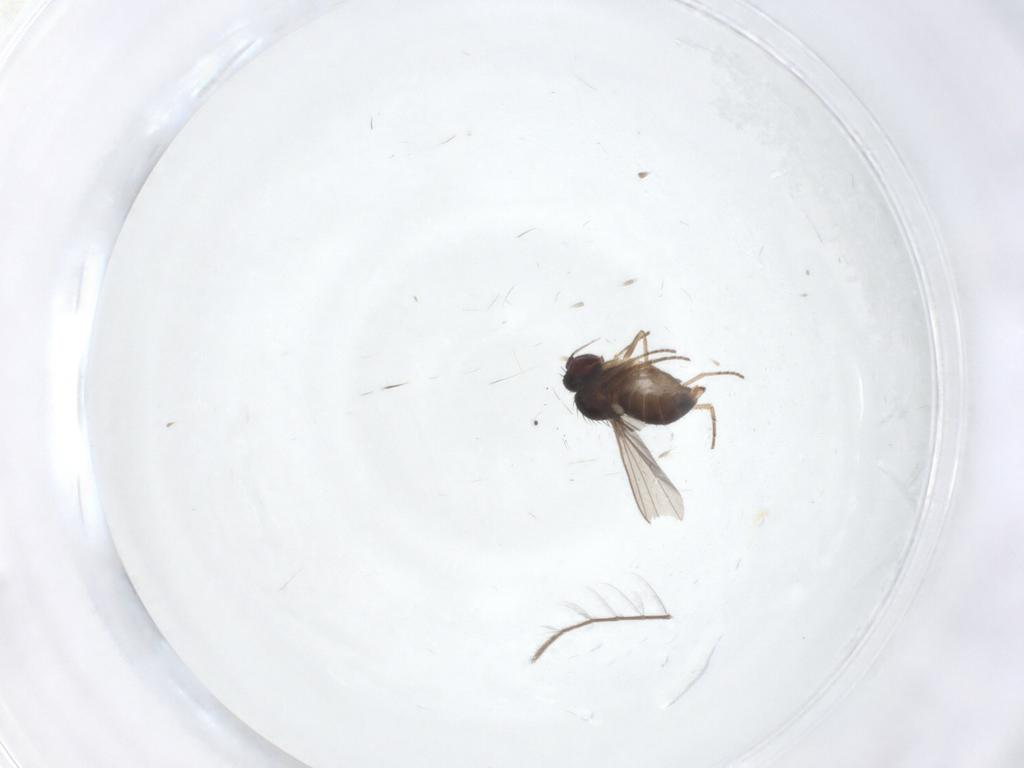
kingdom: Animalia
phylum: Arthropoda
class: Insecta
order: Diptera
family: Dolichopodidae
